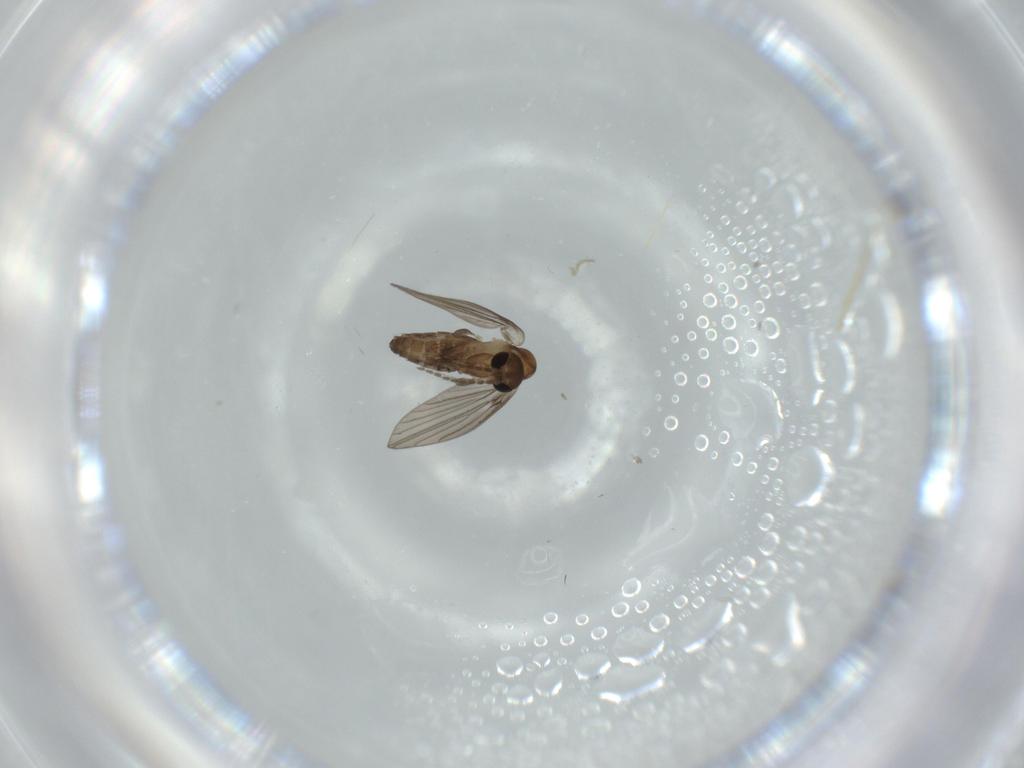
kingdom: Animalia
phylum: Arthropoda
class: Insecta
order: Diptera
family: Psychodidae
